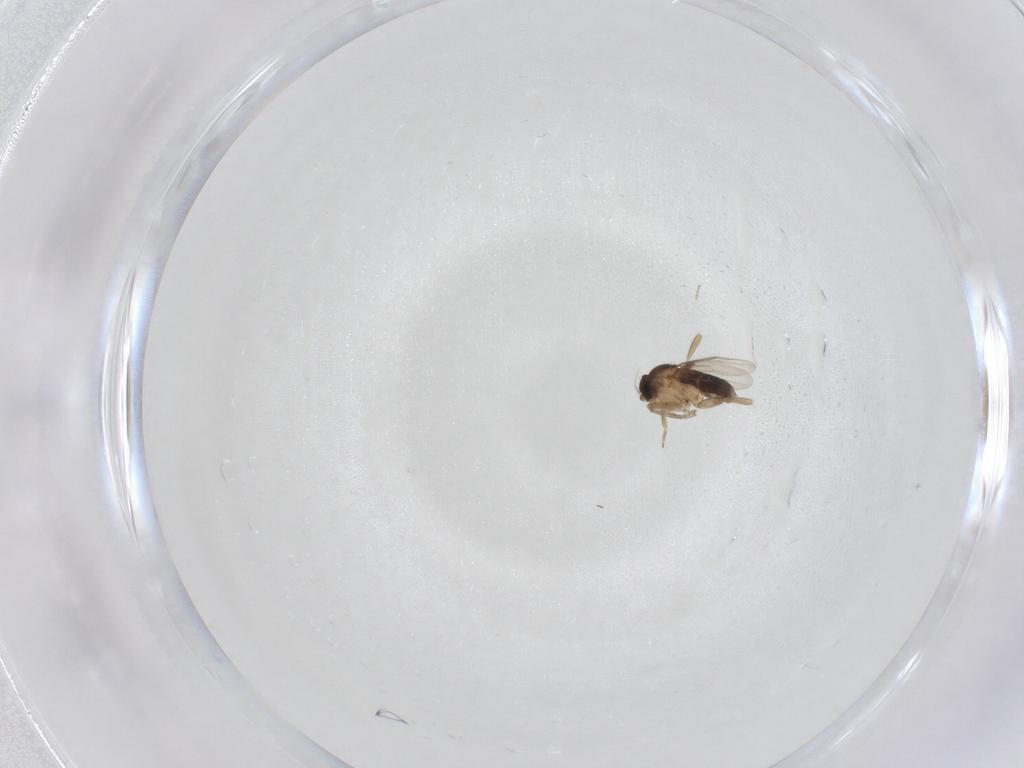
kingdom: Animalia
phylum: Arthropoda
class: Insecta
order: Diptera
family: Phoridae
